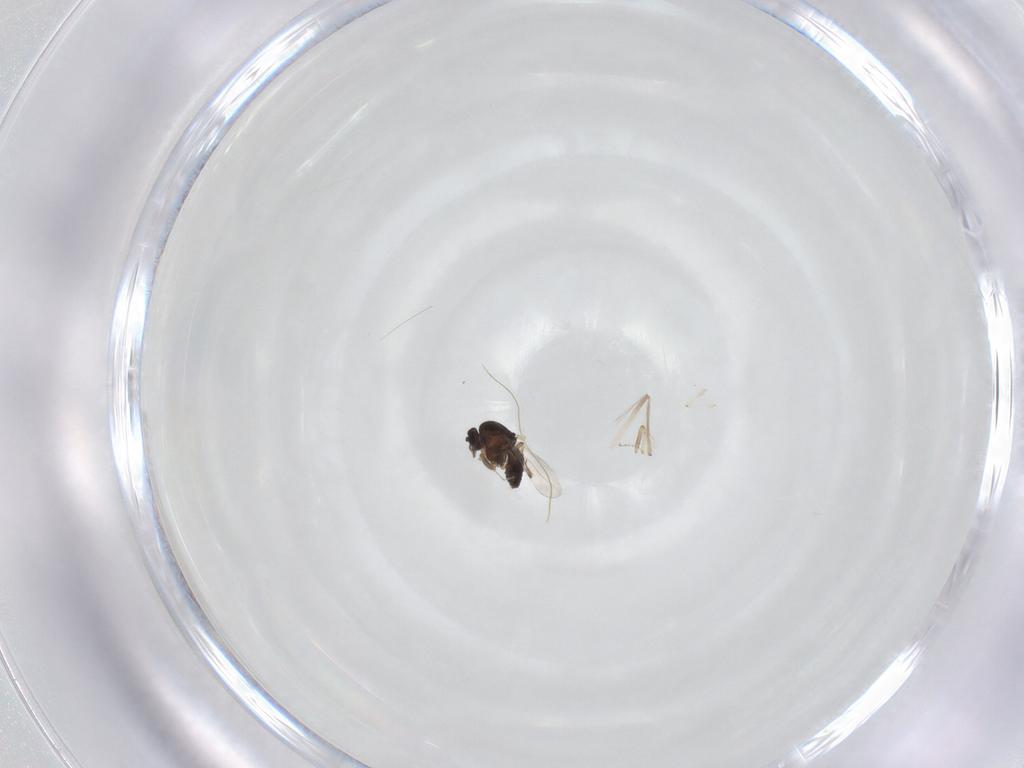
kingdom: Animalia
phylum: Arthropoda
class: Insecta
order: Diptera
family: Ceratopogonidae
